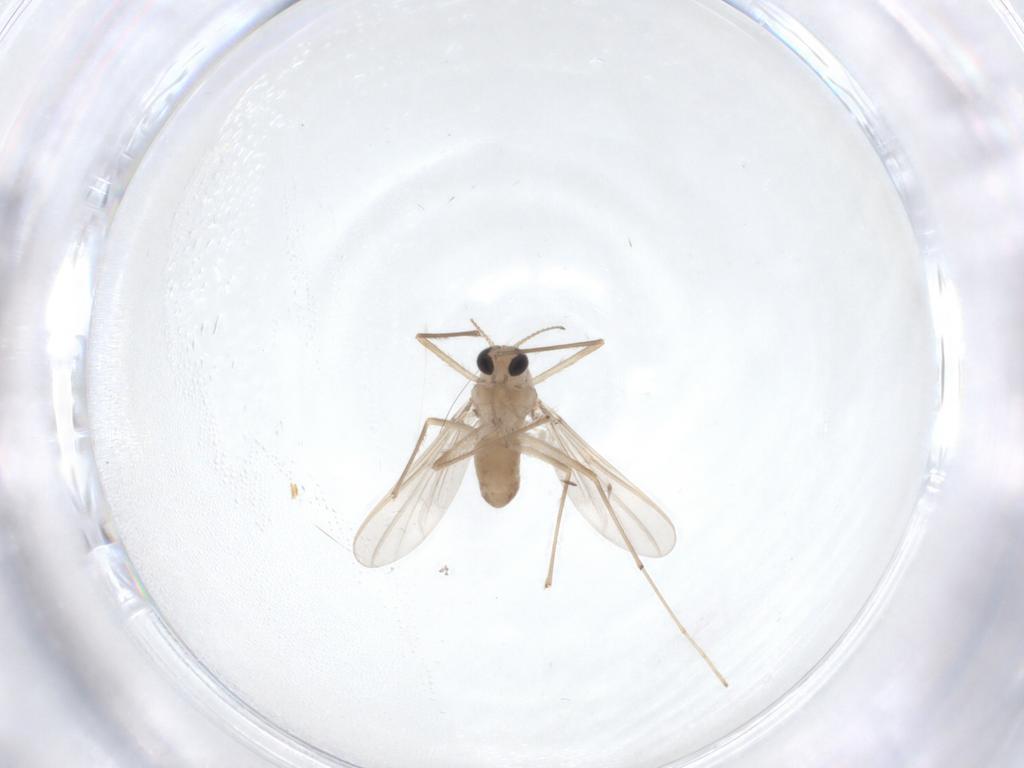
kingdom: Animalia
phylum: Arthropoda
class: Insecta
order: Diptera
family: Chironomidae
